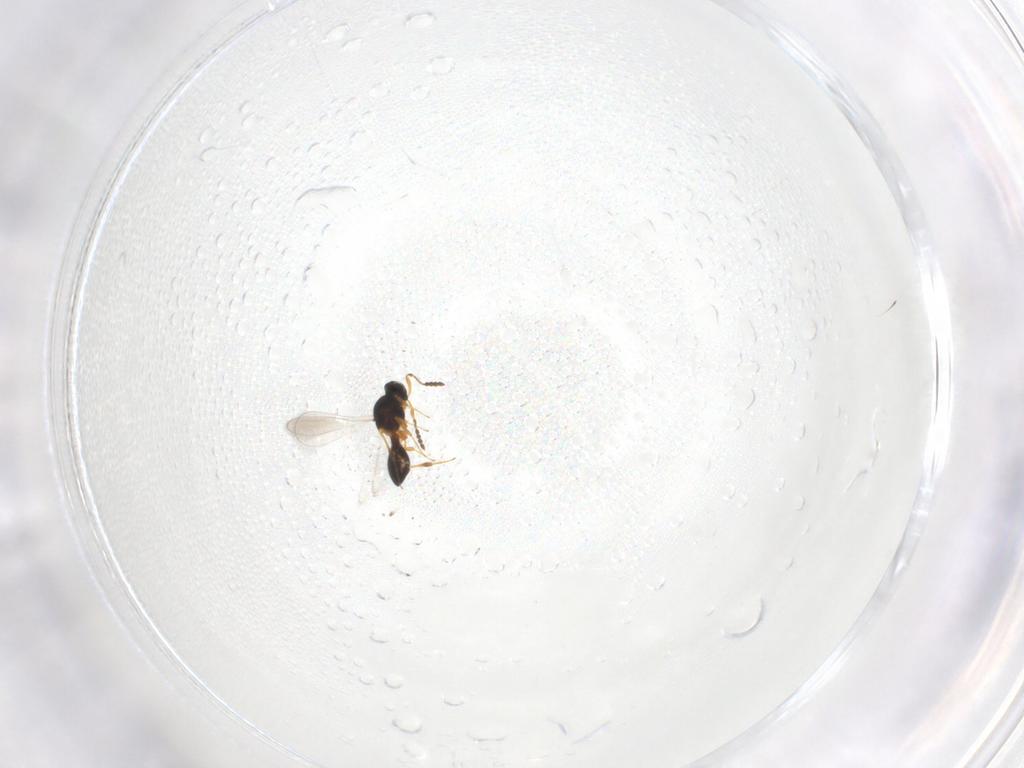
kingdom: Animalia
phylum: Arthropoda
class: Insecta
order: Hymenoptera
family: Platygastridae
